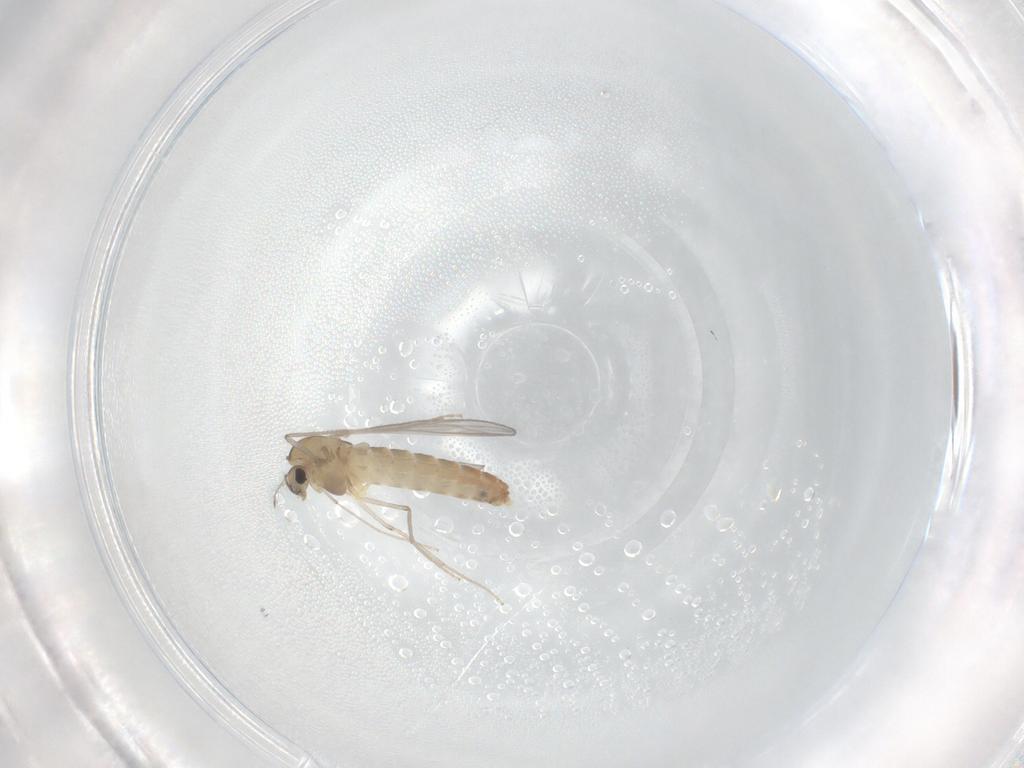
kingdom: Animalia
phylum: Arthropoda
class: Insecta
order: Diptera
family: Chironomidae
